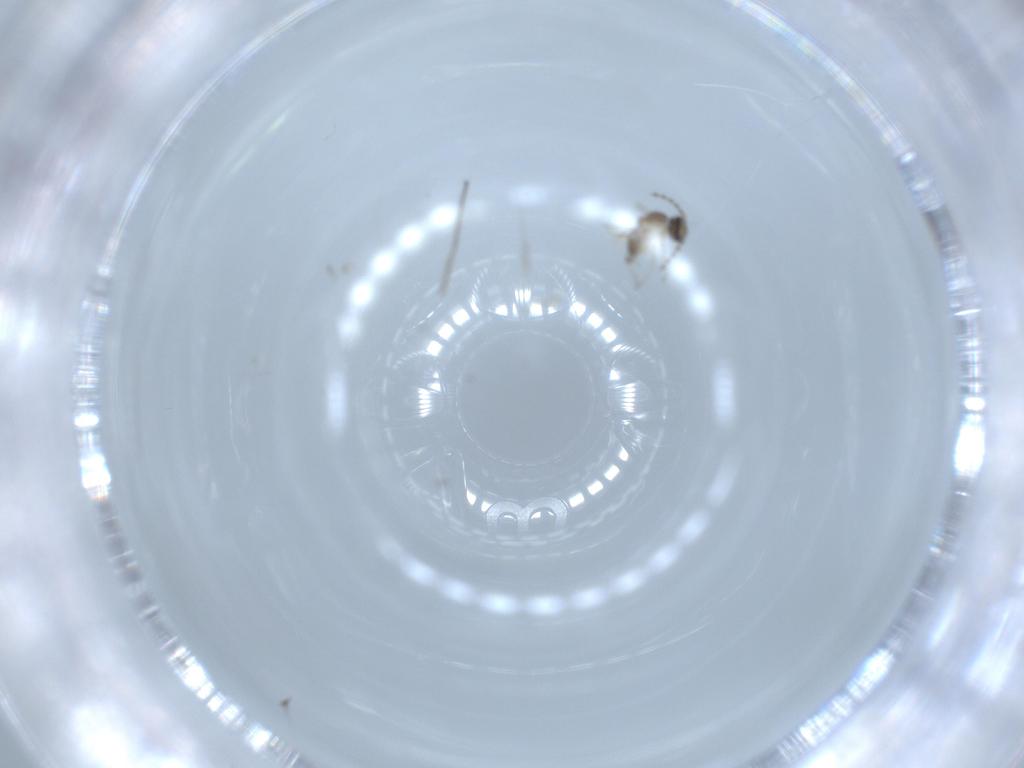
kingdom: Animalia
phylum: Arthropoda
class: Insecta
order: Diptera
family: Cecidomyiidae
